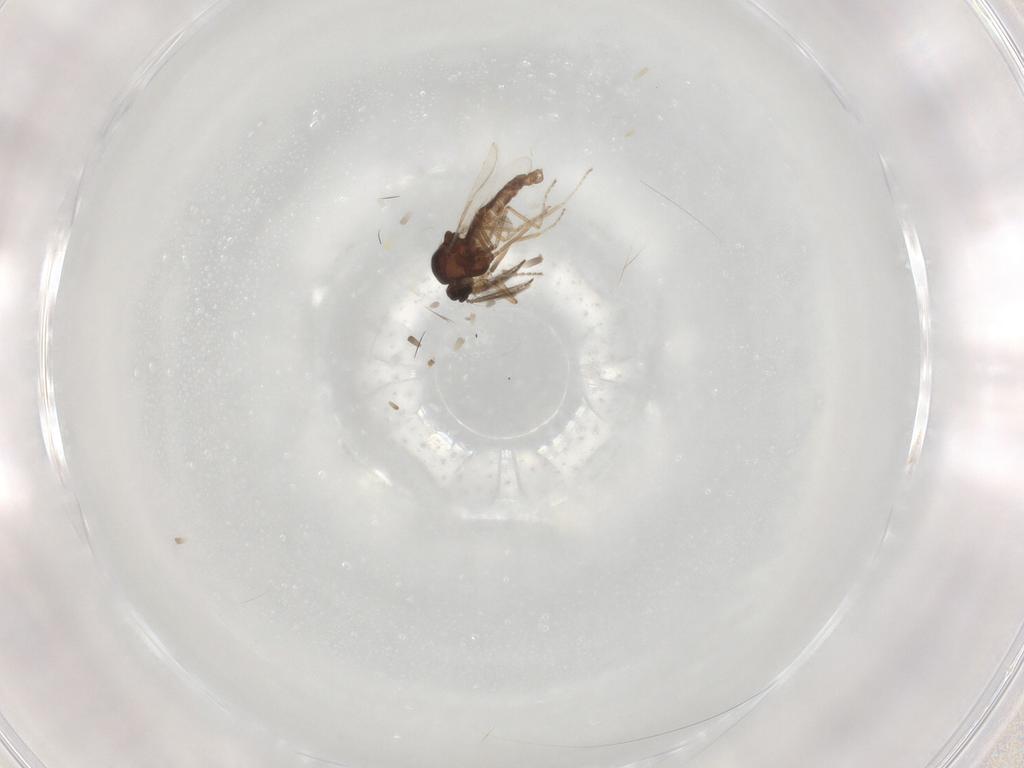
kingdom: Animalia
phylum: Arthropoda
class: Insecta
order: Diptera
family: Ceratopogonidae
